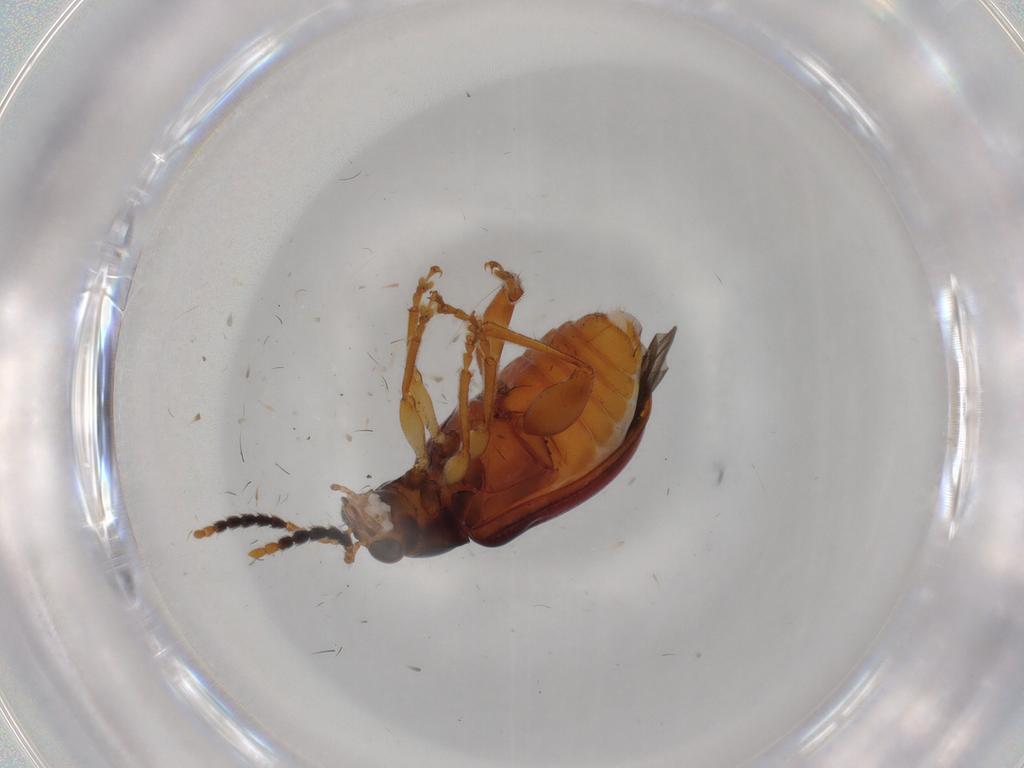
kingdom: Animalia
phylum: Arthropoda
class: Insecta
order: Coleoptera
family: Chrysomelidae
